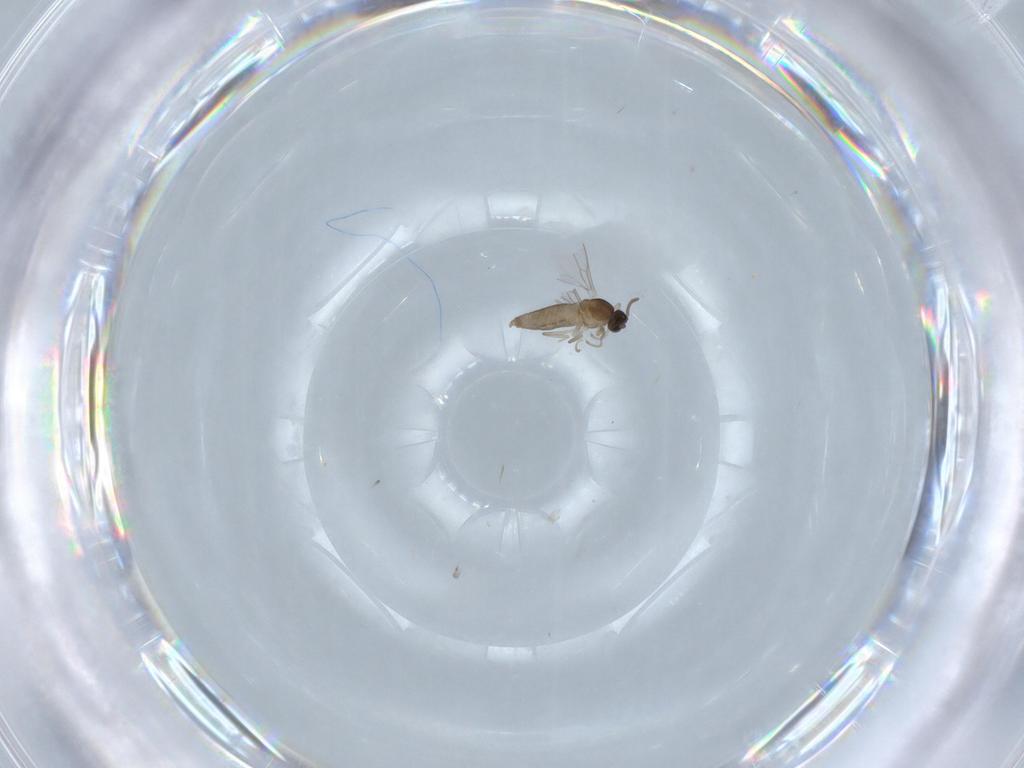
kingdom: Animalia
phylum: Arthropoda
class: Insecta
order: Diptera
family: Cecidomyiidae
